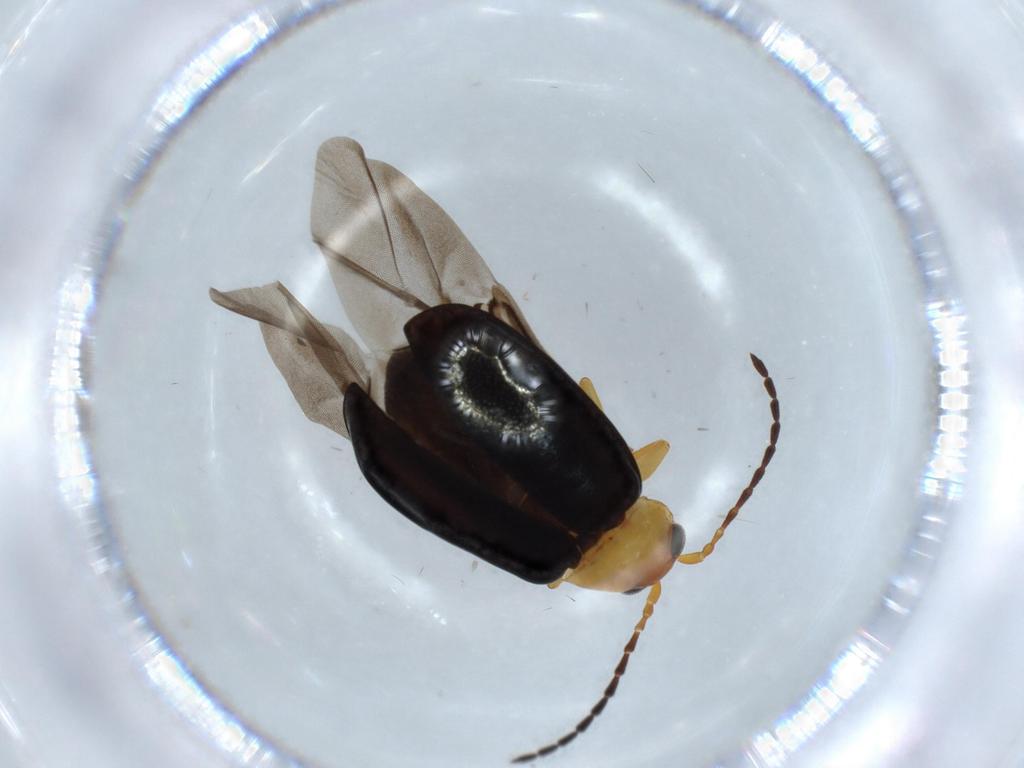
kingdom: Animalia
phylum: Arthropoda
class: Insecta
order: Coleoptera
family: Chrysomelidae
